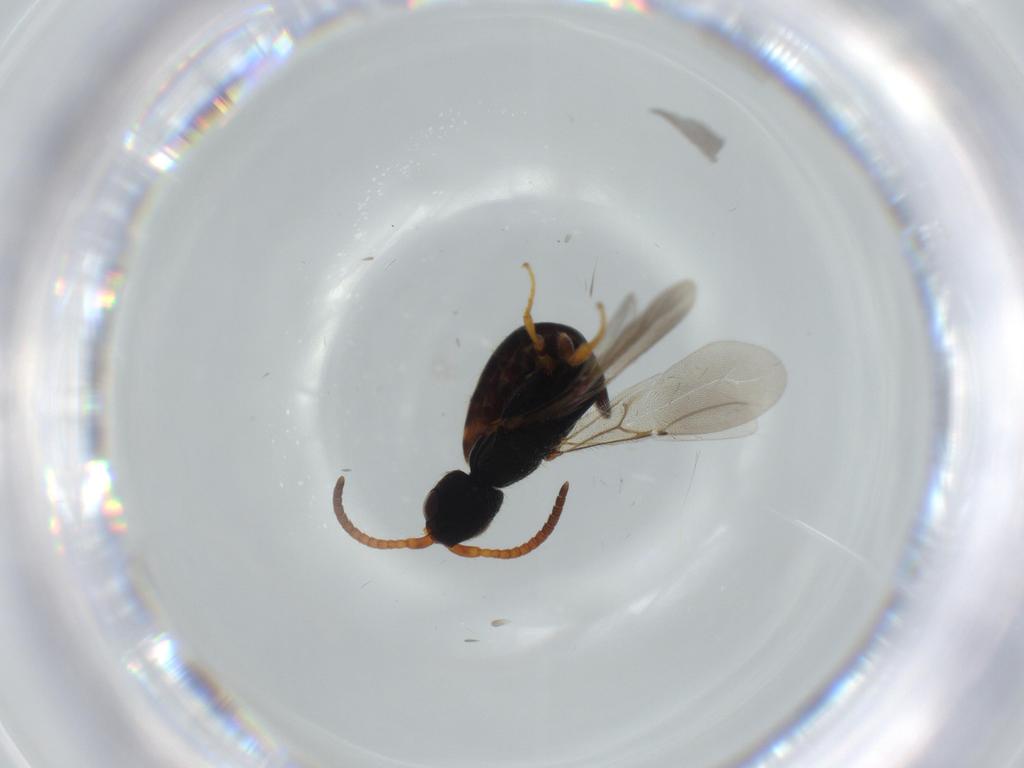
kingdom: Animalia
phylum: Arthropoda
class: Insecta
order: Hymenoptera
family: Bethylidae
